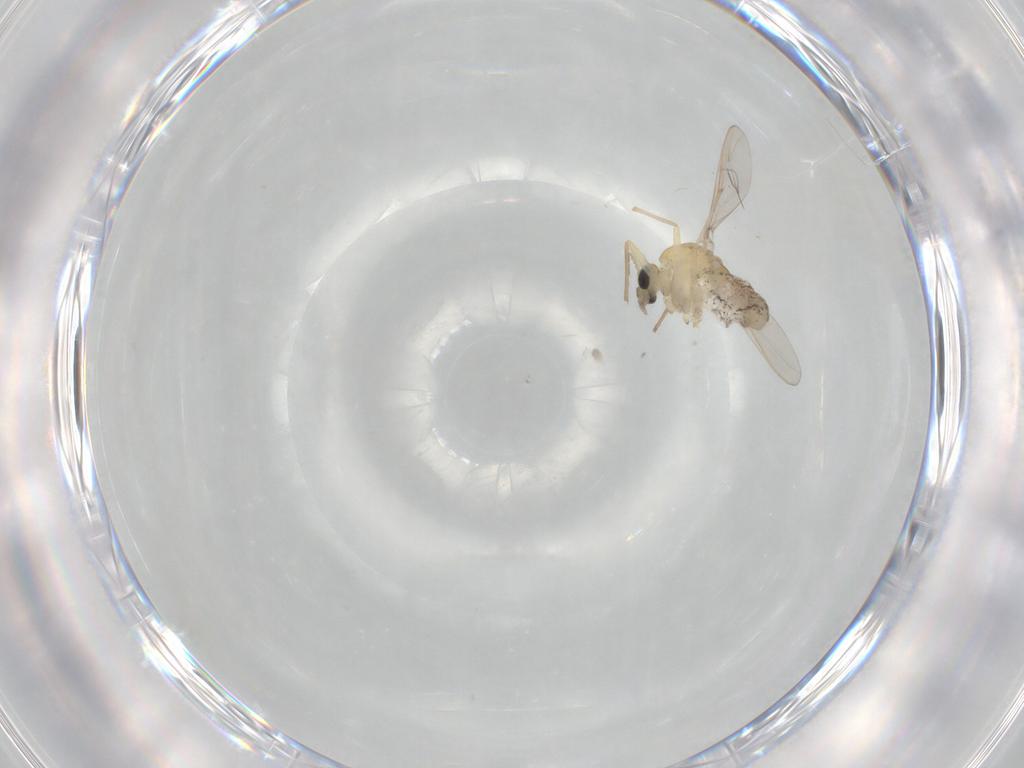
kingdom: Animalia
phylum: Arthropoda
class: Insecta
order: Diptera
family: Chironomidae
